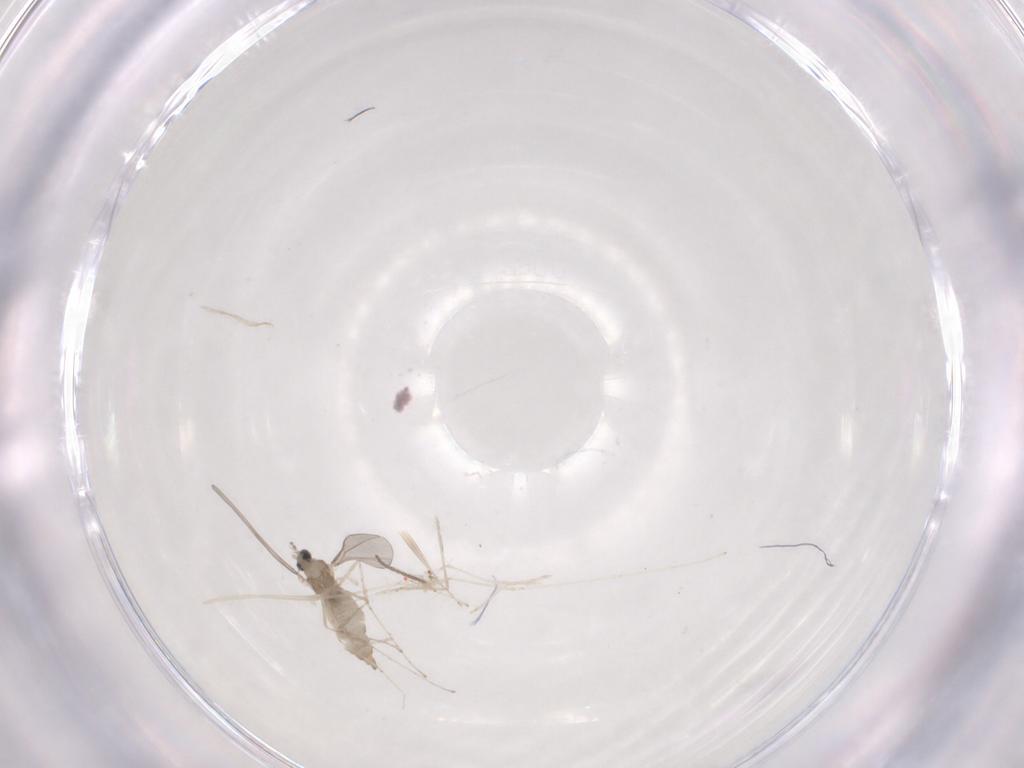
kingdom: Animalia
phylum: Arthropoda
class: Insecta
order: Diptera
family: Cecidomyiidae
